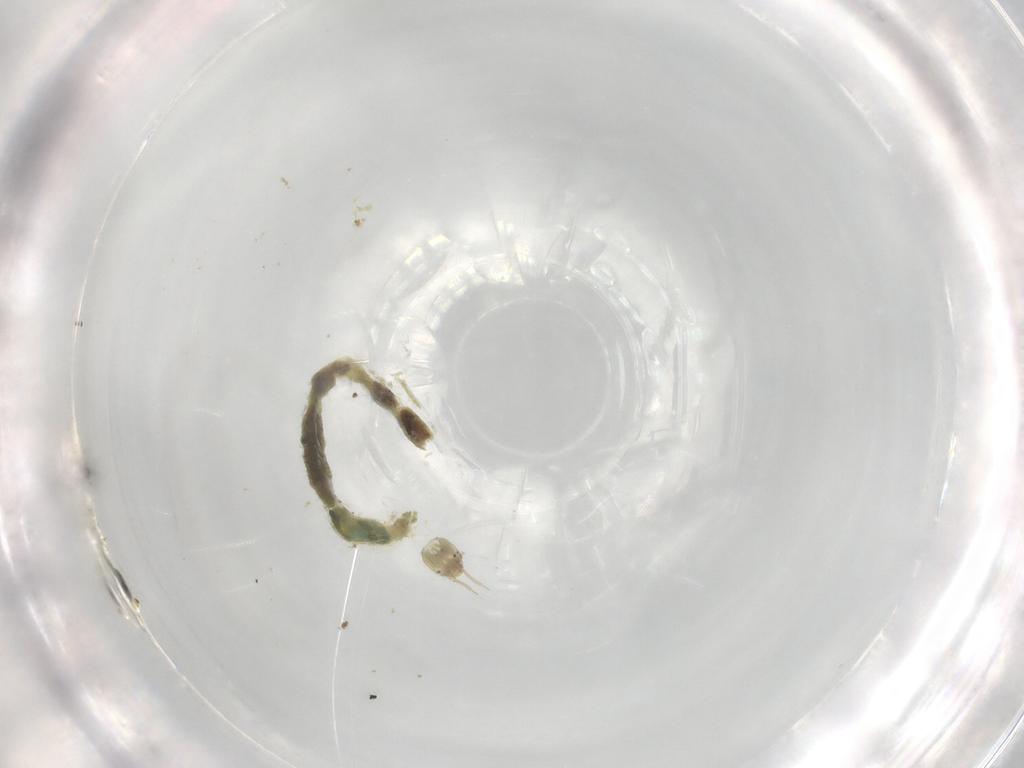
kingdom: Animalia
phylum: Arthropoda
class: Insecta
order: Diptera
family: Chironomidae
